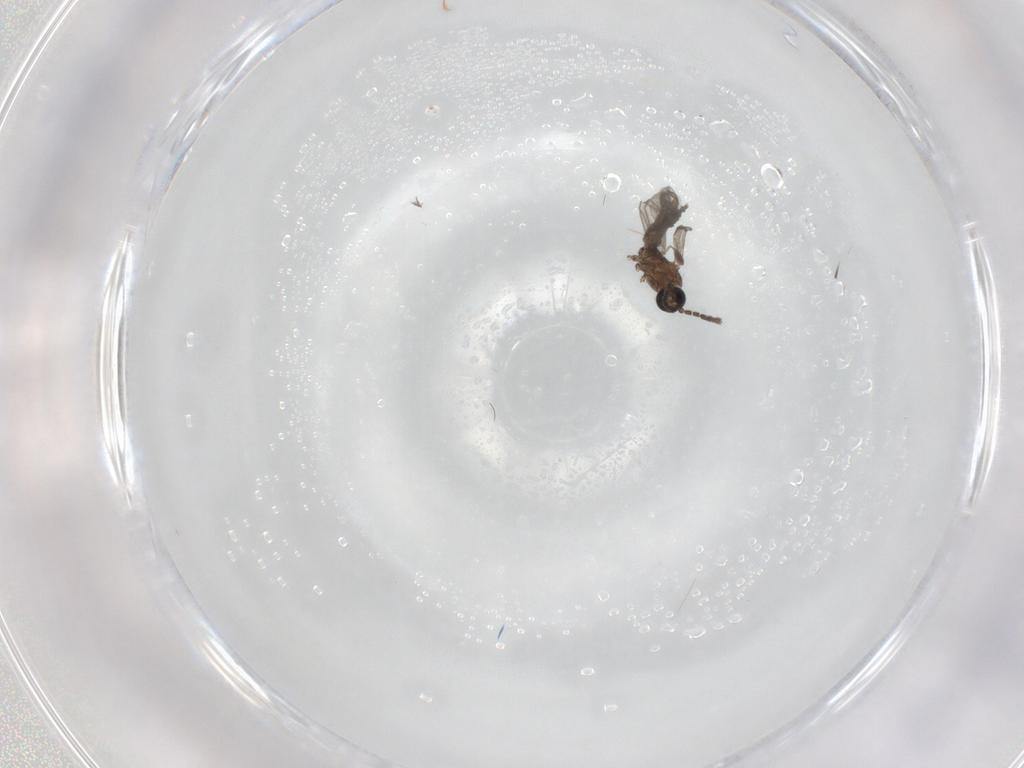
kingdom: Animalia
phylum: Arthropoda
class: Insecta
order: Diptera
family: Sciaridae
